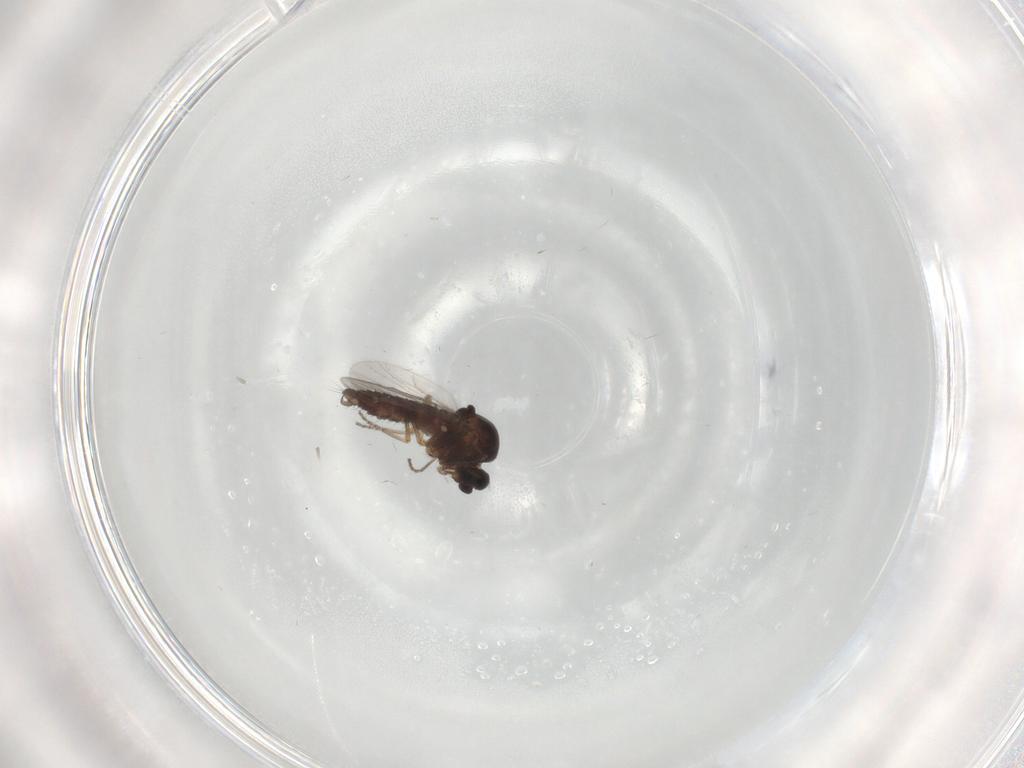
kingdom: Animalia
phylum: Arthropoda
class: Insecta
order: Diptera
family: Ceratopogonidae
